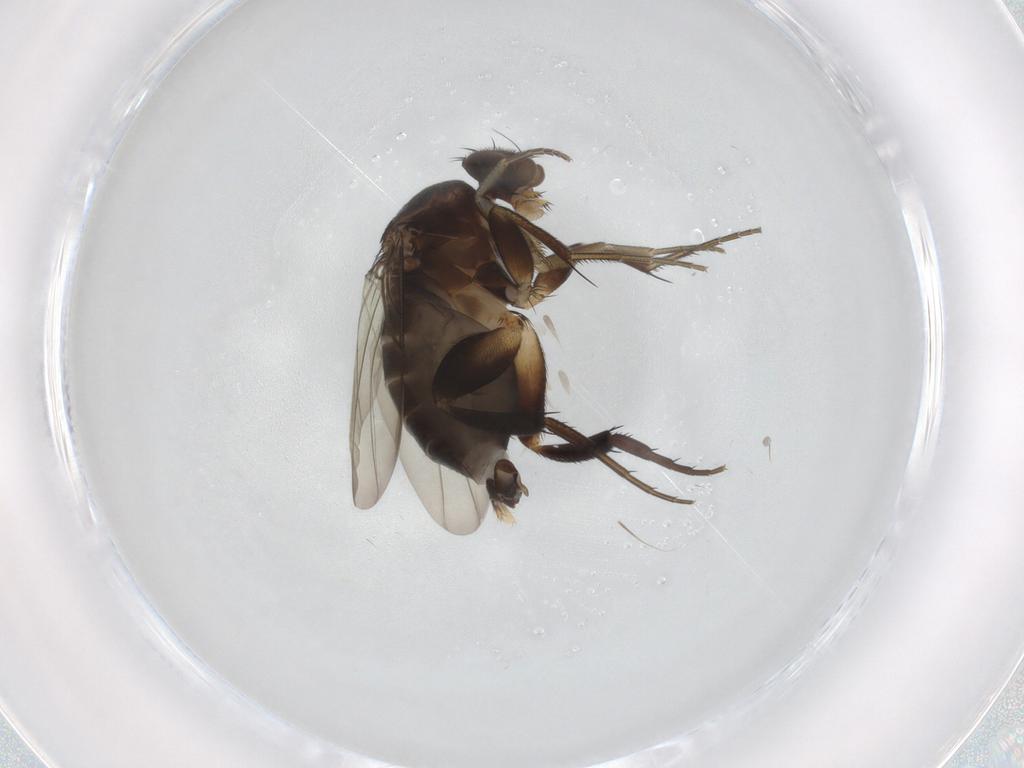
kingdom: Animalia
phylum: Arthropoda
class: Insecta
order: Diptera
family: Phoridae
